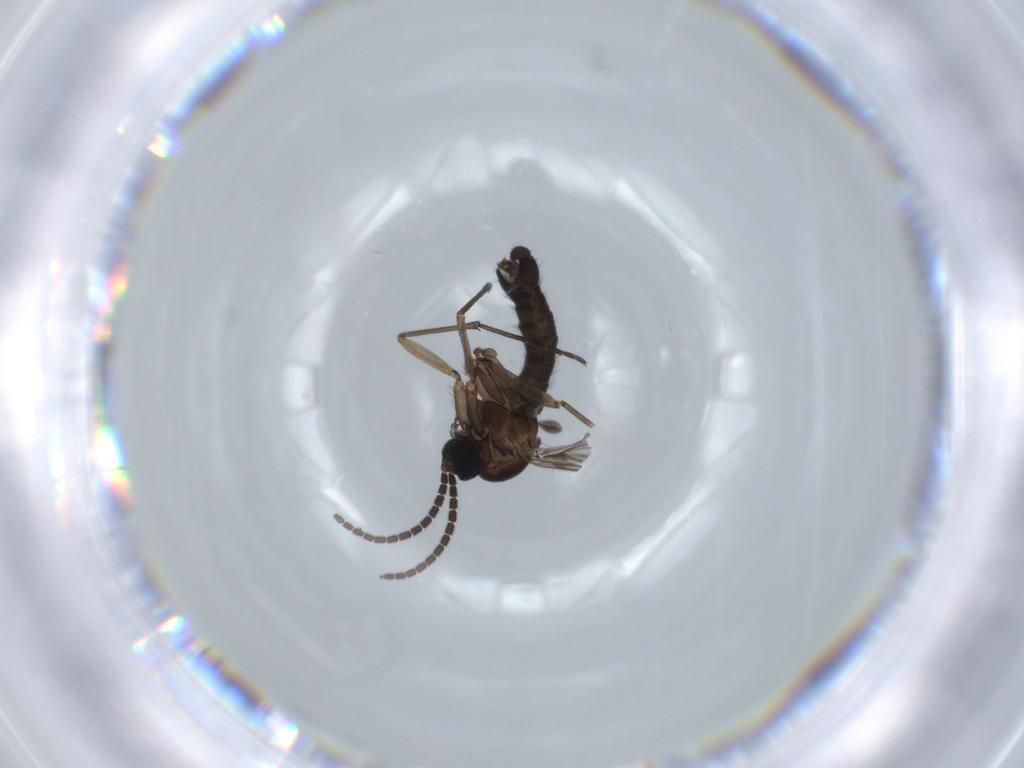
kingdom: Animalia
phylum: Arthropoda
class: Insecta
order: Diptera
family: Sciaridae
